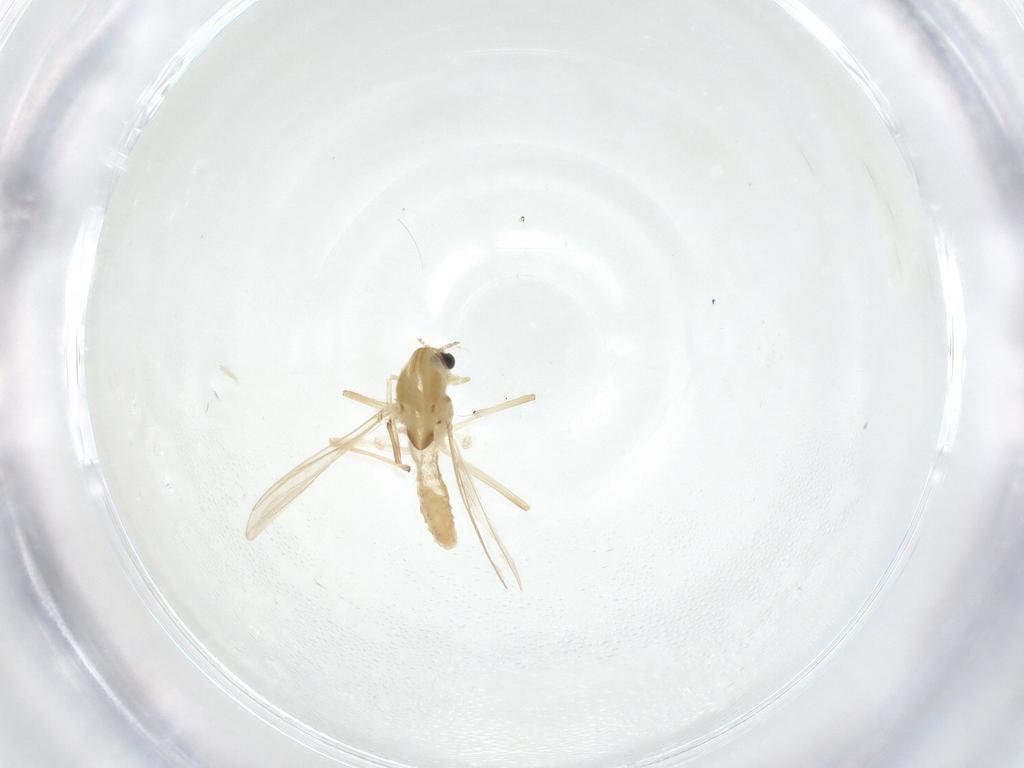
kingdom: Animalia
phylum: Arthropoda
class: Insecta
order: Diptera
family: Chironomidae
